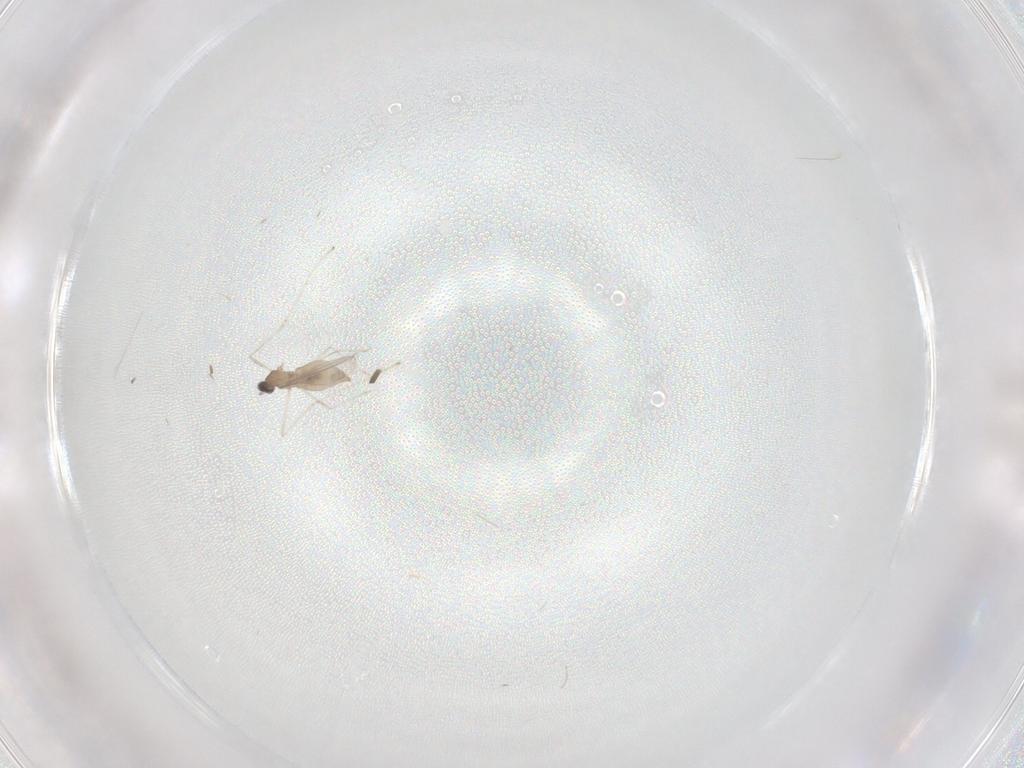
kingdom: Animalia
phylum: Arthropoda
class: Insecta
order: Diptera
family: Cecidomyiidae
